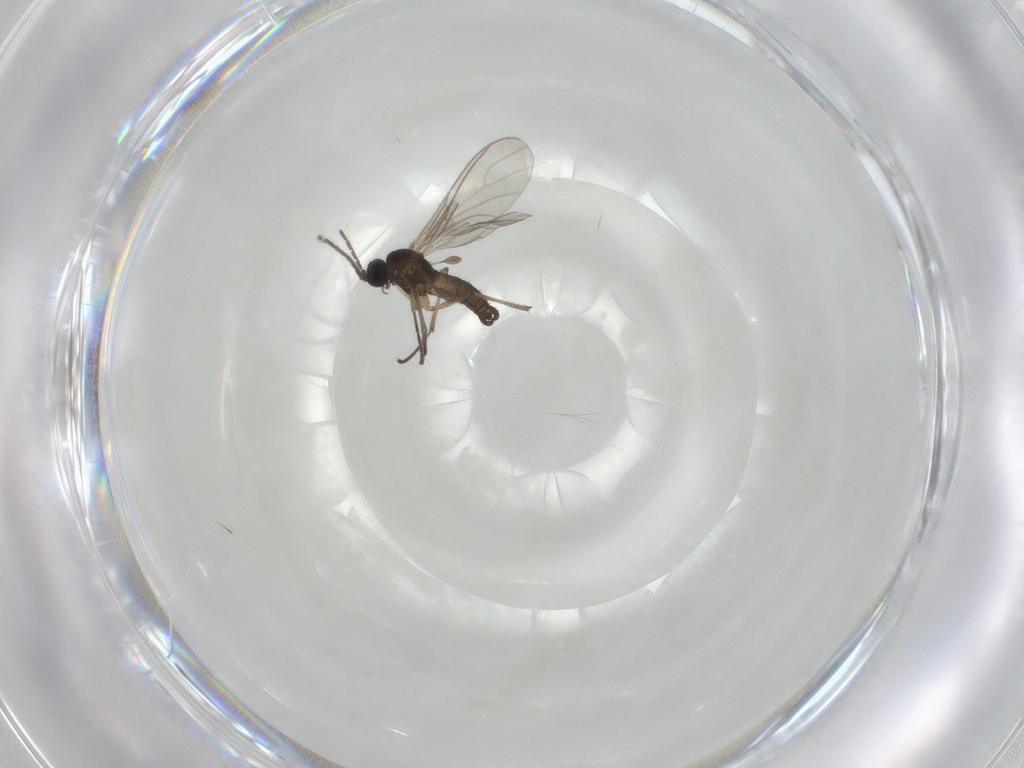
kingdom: Animalia
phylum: Arthropoda
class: Insecta
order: Diptera
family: Sciaridae
